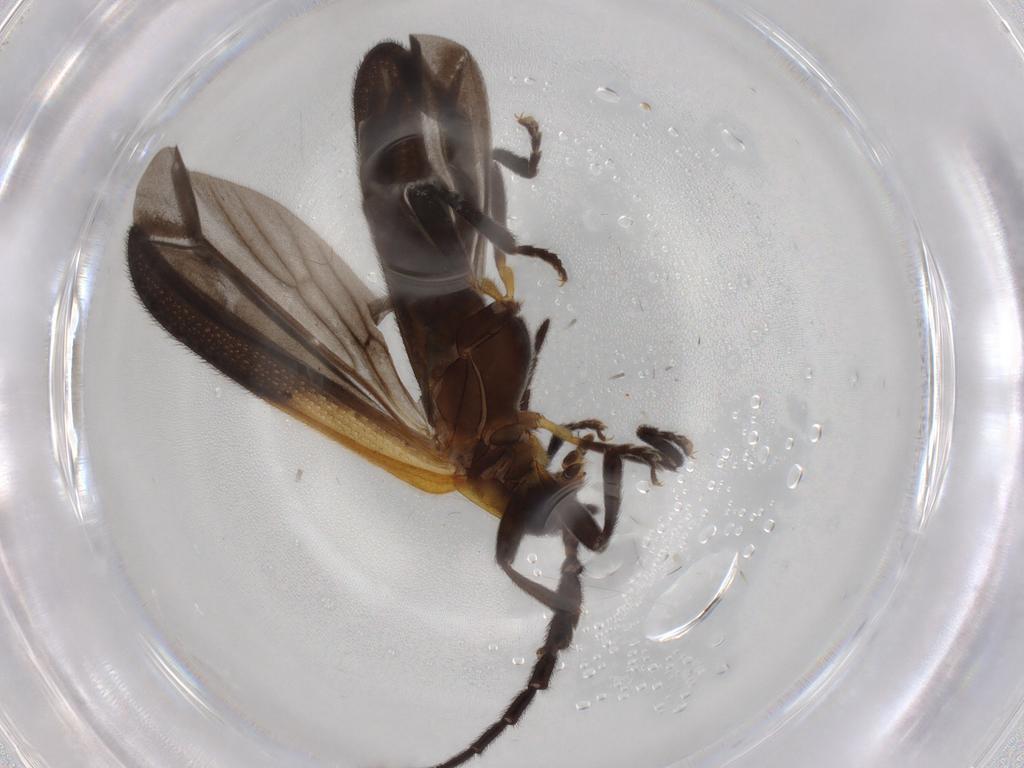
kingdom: Animalia
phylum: Arthropoda
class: Insecta
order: Coleoptera
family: Lycidae
